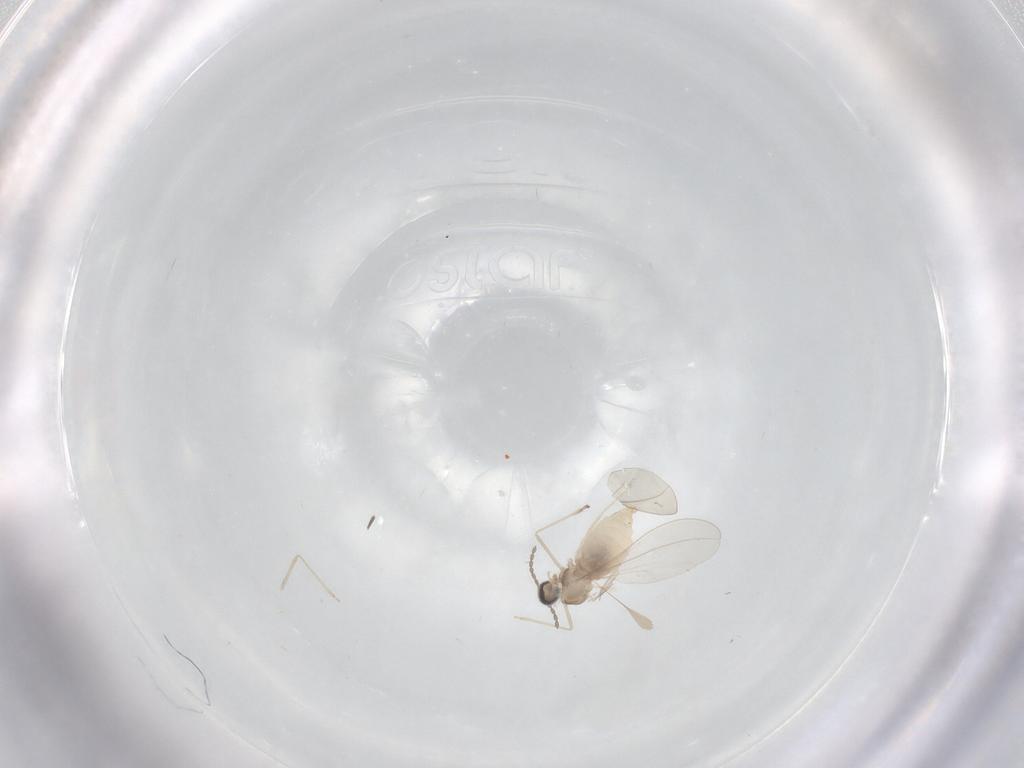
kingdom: Animalia
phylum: Arthropoda
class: Insecta
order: Diptera
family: Cecidomyiidae
